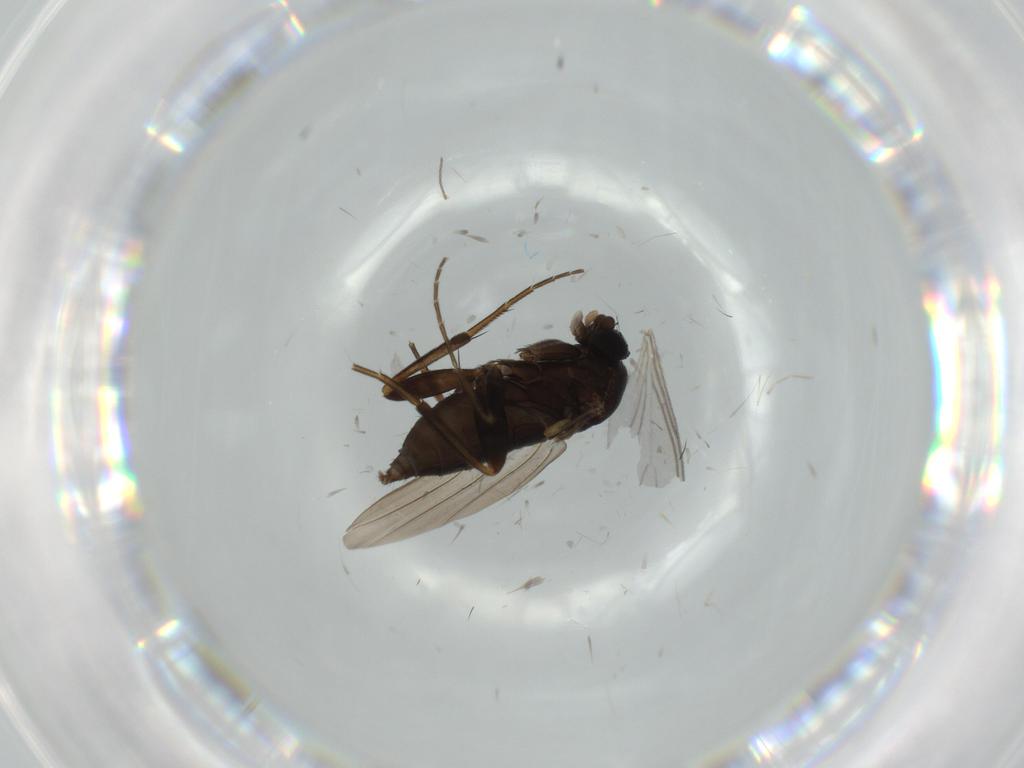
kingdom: Animalia
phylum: Arthropoda
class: Insecta
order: Diptera
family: Phoridae
